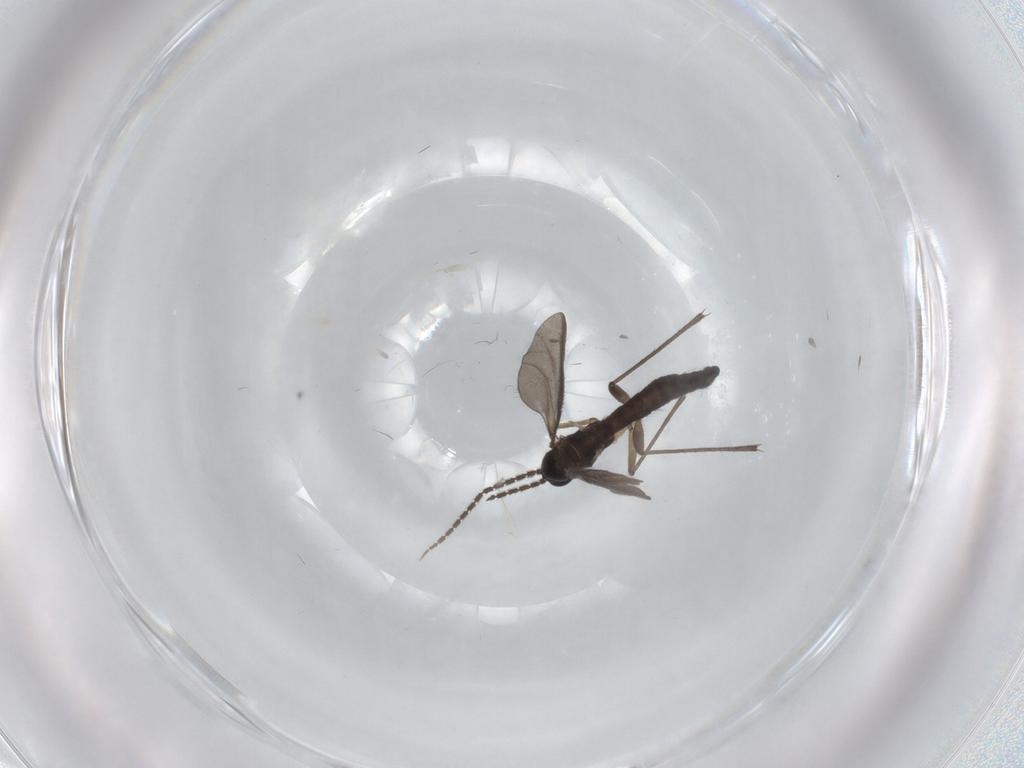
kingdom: Animalia
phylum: Arthropoda
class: Insecta
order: Diptera
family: Sciaridae
